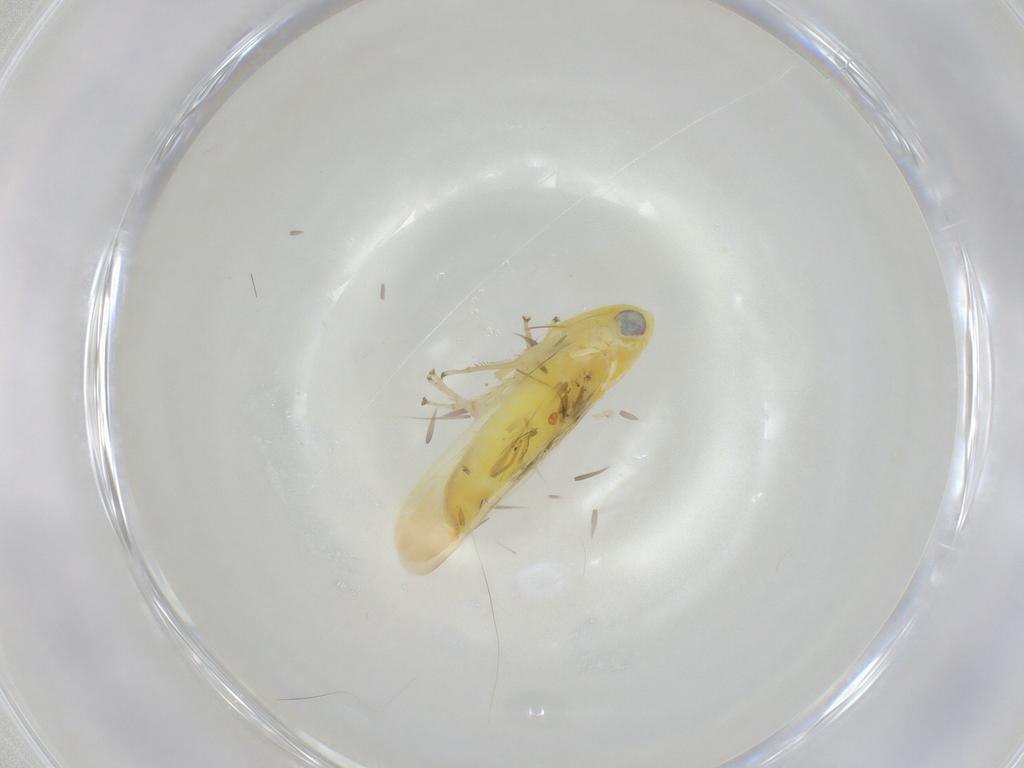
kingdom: Animalia
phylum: Arthropoda
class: Insecta
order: Hemiptera
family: Cicadellidae
